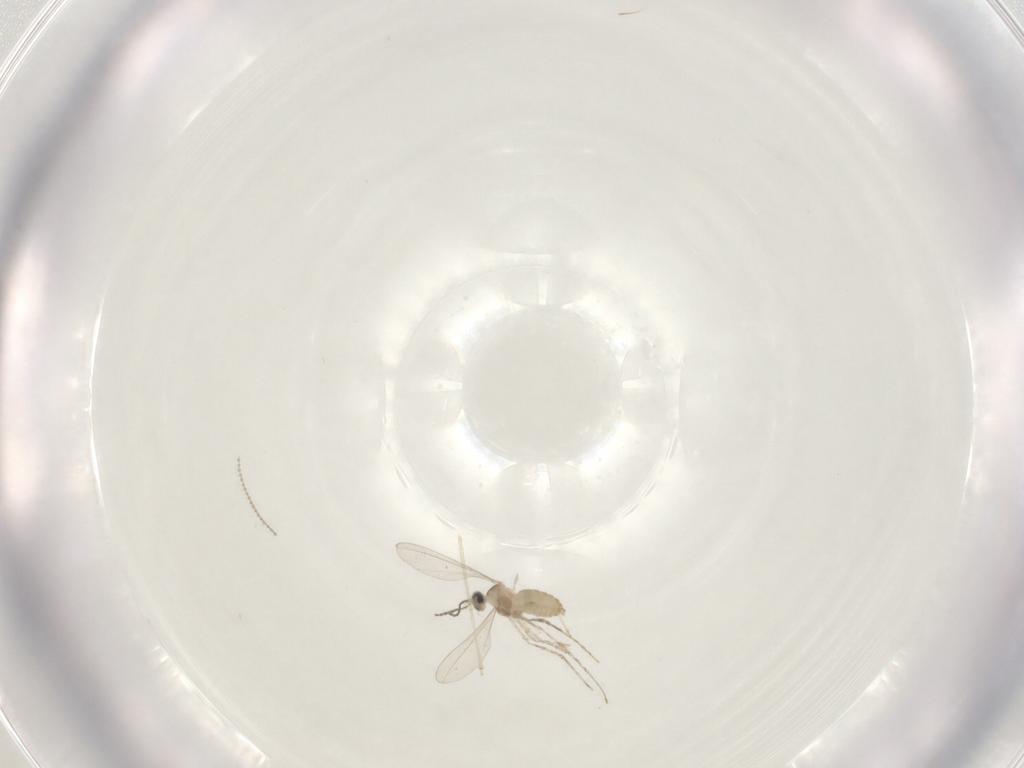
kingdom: Animalia
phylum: Arthropoda
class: Insecta
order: Diptera
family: Cecidomyiidae
